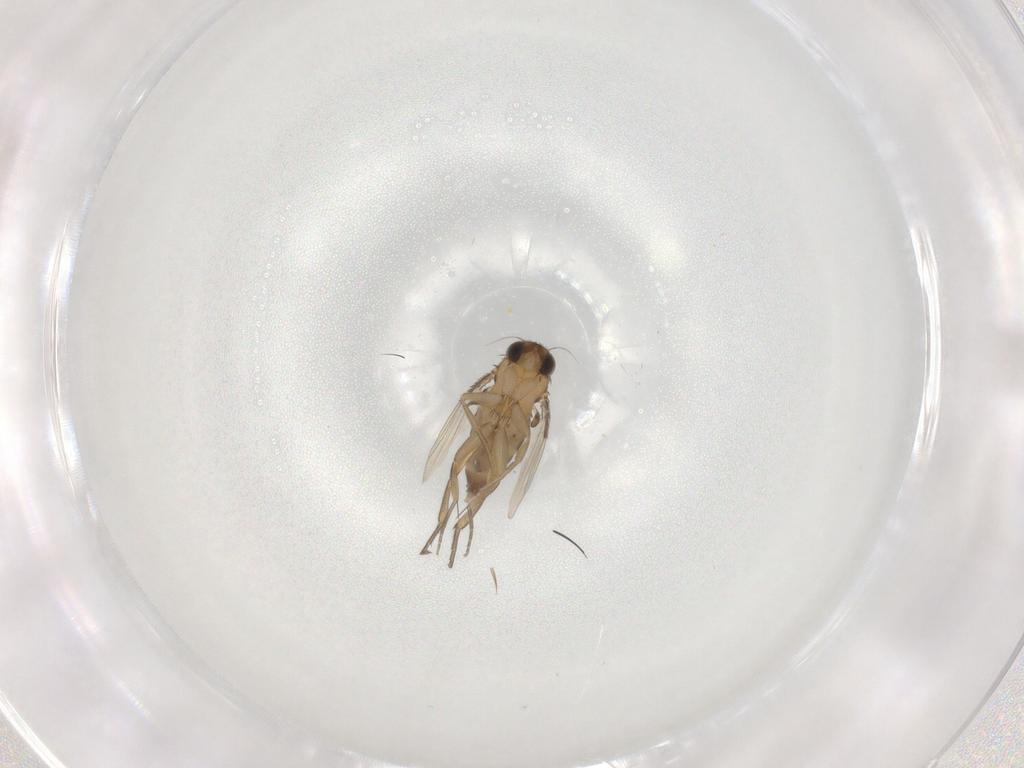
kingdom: Animalia
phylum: Arthropoda
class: Insecta
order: Diptera
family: Phoridae
